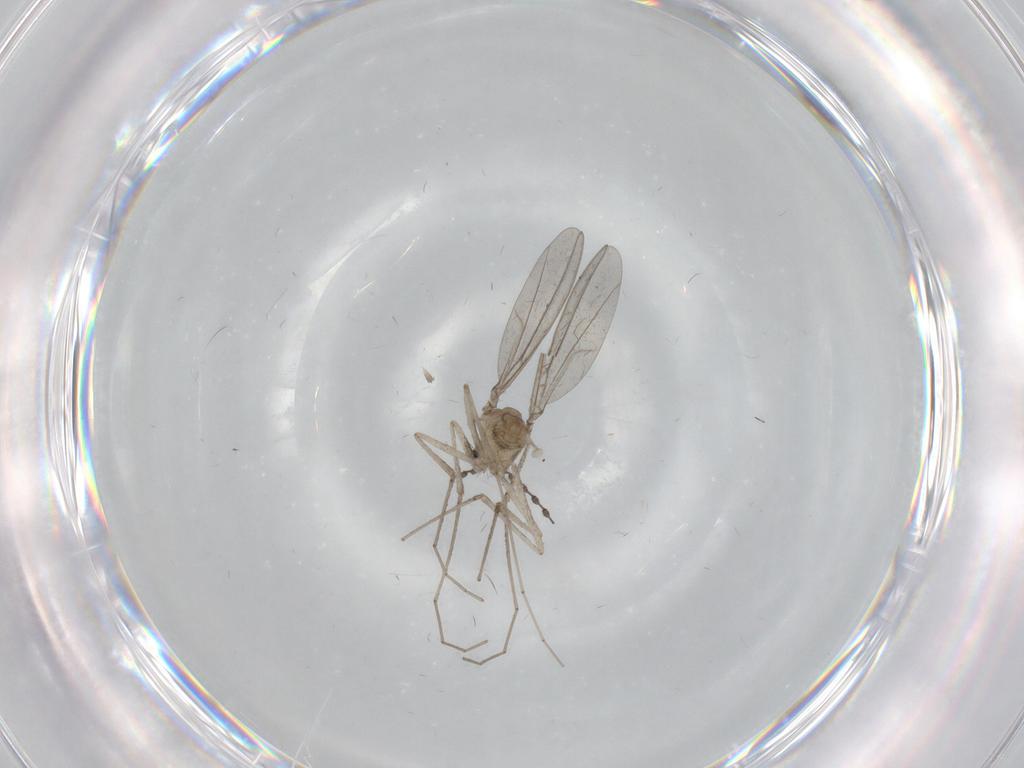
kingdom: Animalia
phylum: Arthropoda
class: Insecta
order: Diptera
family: Cecidomyiidae
